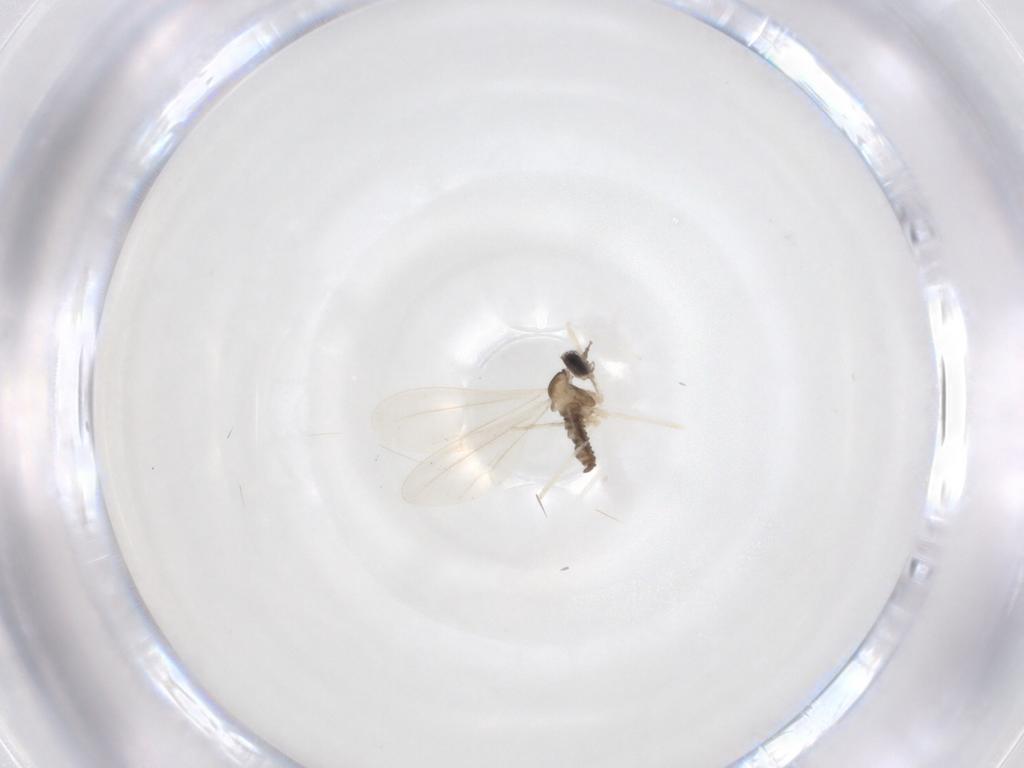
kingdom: Animalia
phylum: Arthropoda
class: Insecta
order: Diptera
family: Cecidomyiidae
